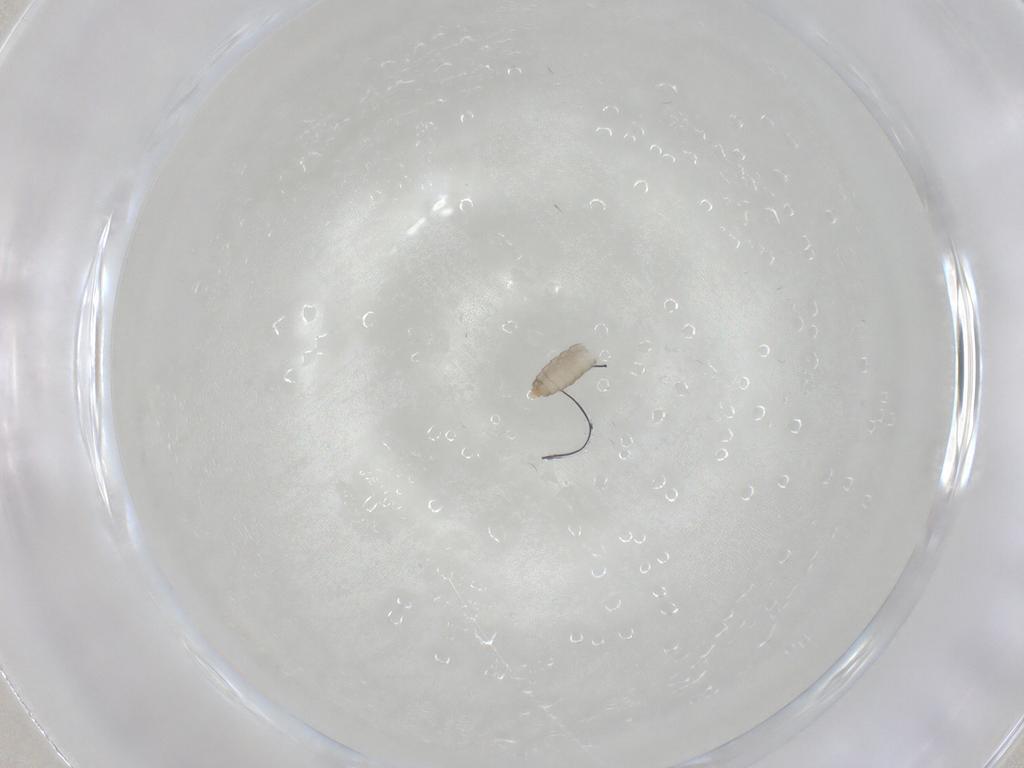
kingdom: Animalia
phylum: Arthropoda
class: Insecta
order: Diptera
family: Cecidomyiidae
